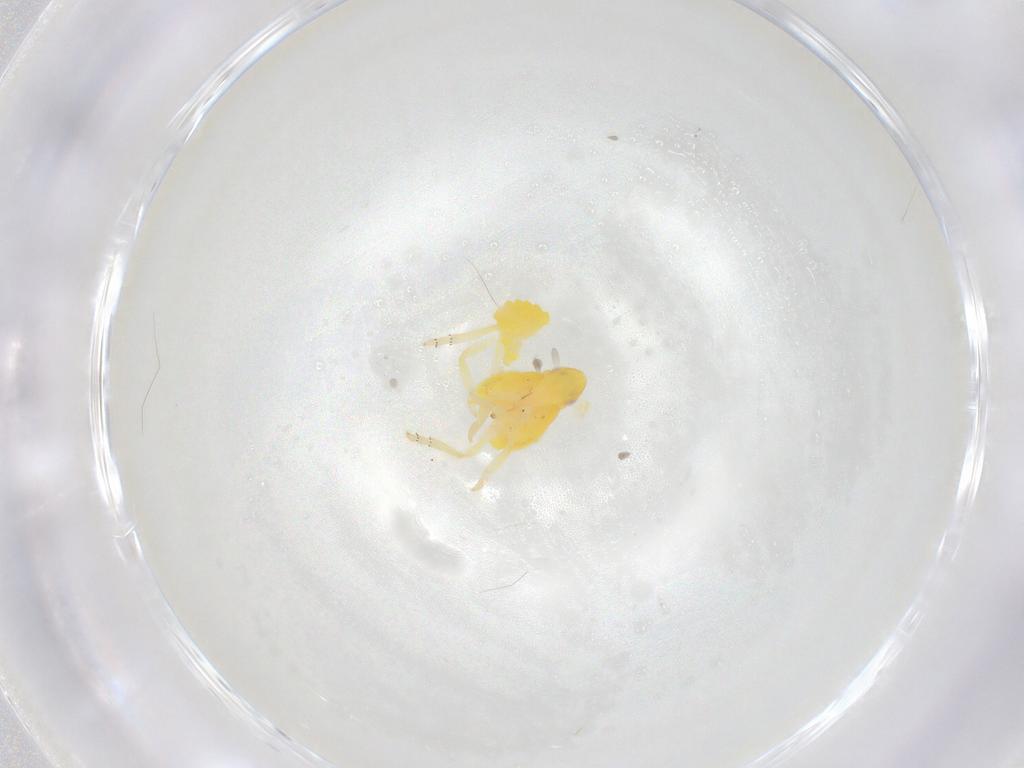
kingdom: Animalia
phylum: Arthropoda
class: Insecta
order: Hemiptera
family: Tropiduchidae
